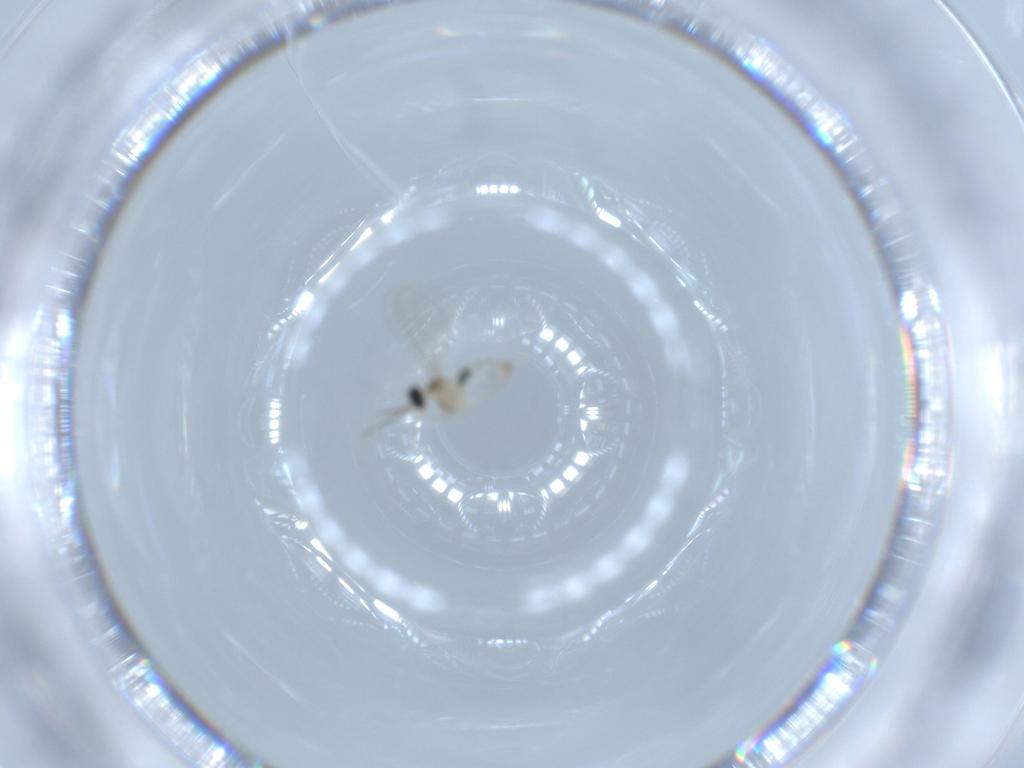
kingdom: Animalia
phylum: Arthropoda
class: Insecta
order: Diptera
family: Cecidomyiidae
